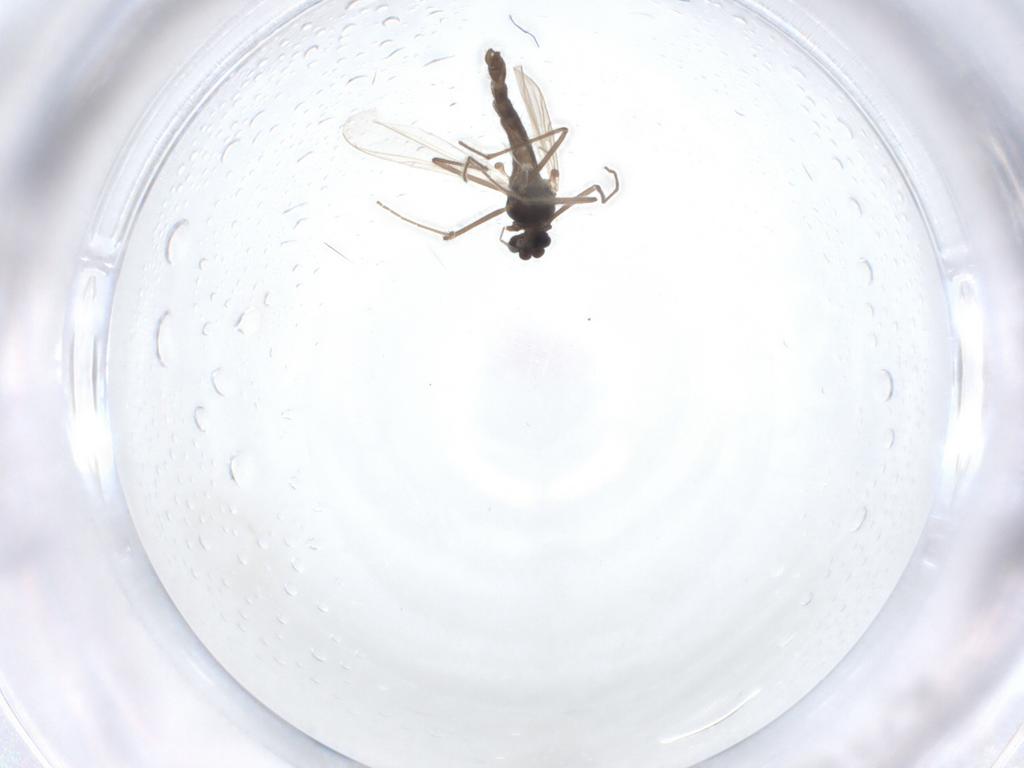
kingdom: Animalia
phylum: Arthropoda
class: Insecta
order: Diptera
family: Chironomidae
